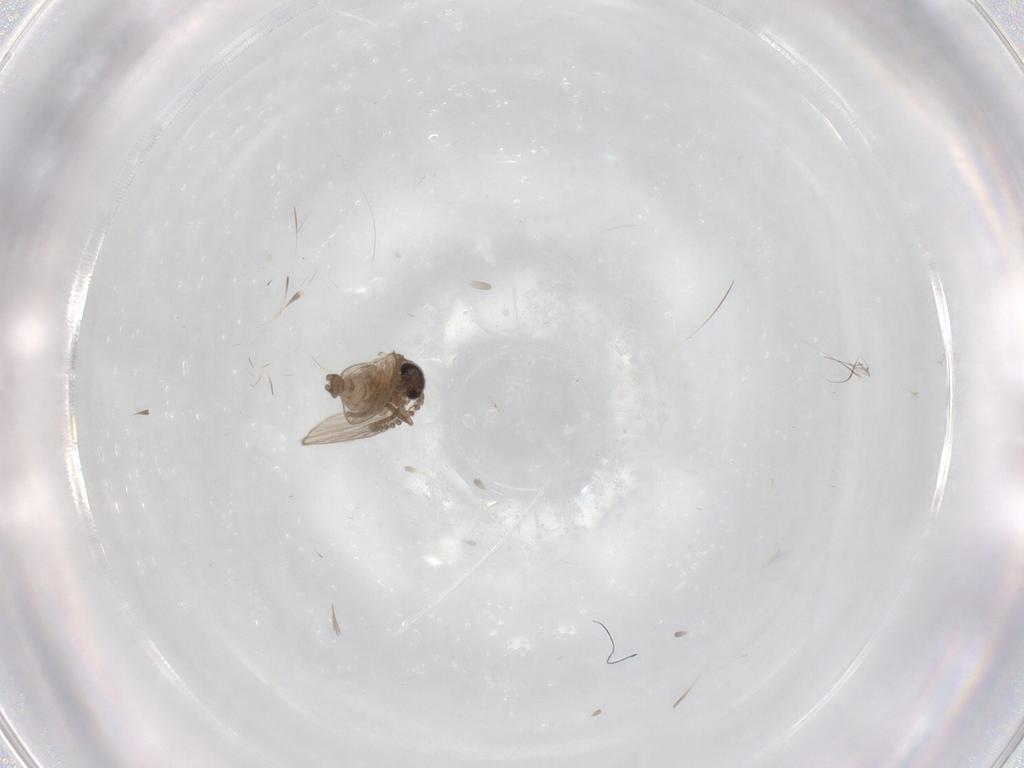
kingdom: Animalia
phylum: Arthropoda
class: Insecta
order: Diptera
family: Psychodidae
